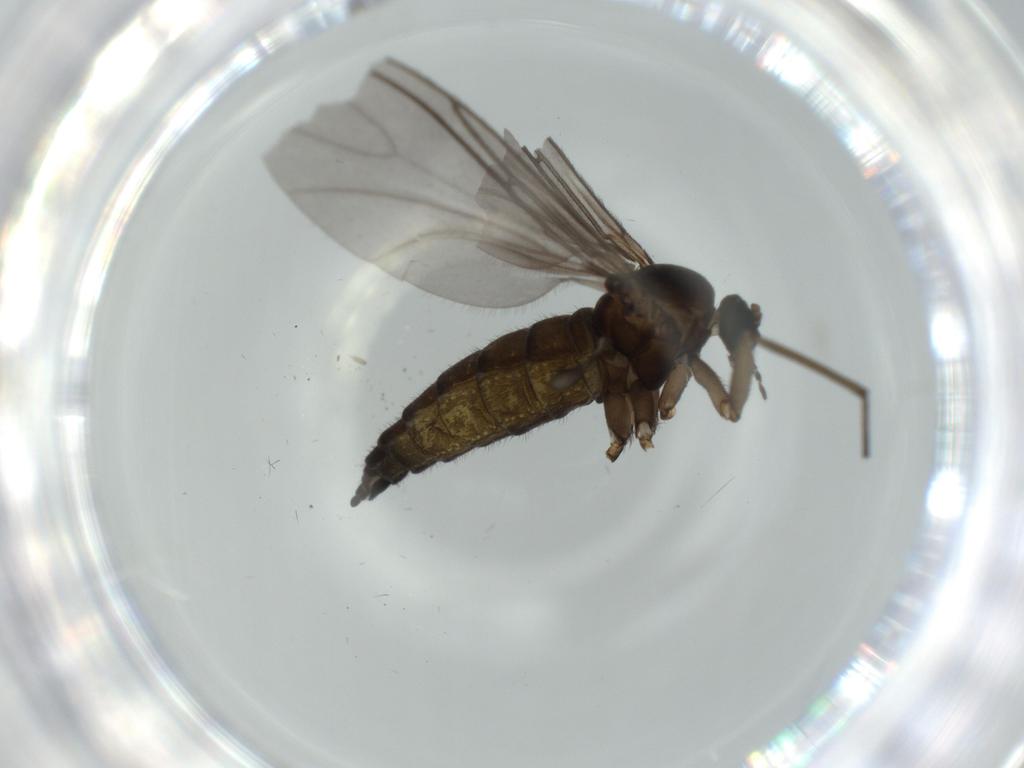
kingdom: Animalia
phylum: Arthropoda
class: Insecta
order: Diptera
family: Sciaridae
